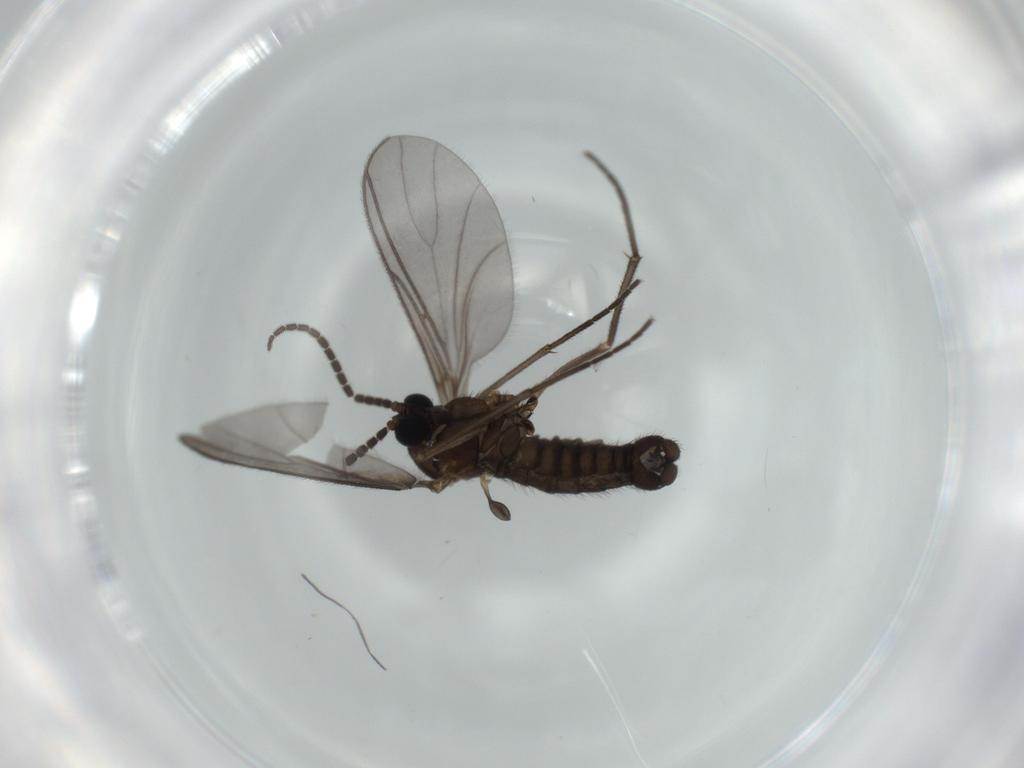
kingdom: Animalia
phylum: Arthropoda
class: Insecta
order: Diptera
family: Sciaridae
